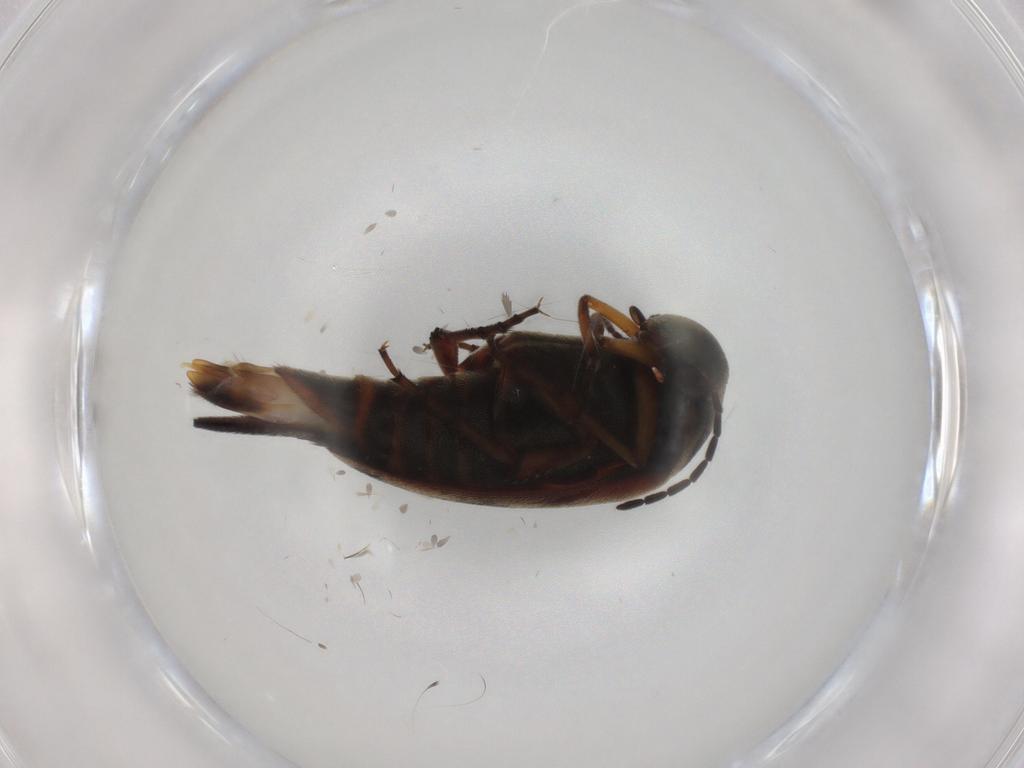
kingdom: Animalia
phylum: Arthropoda
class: Insecta
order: Coleoptera
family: Mordellidae
